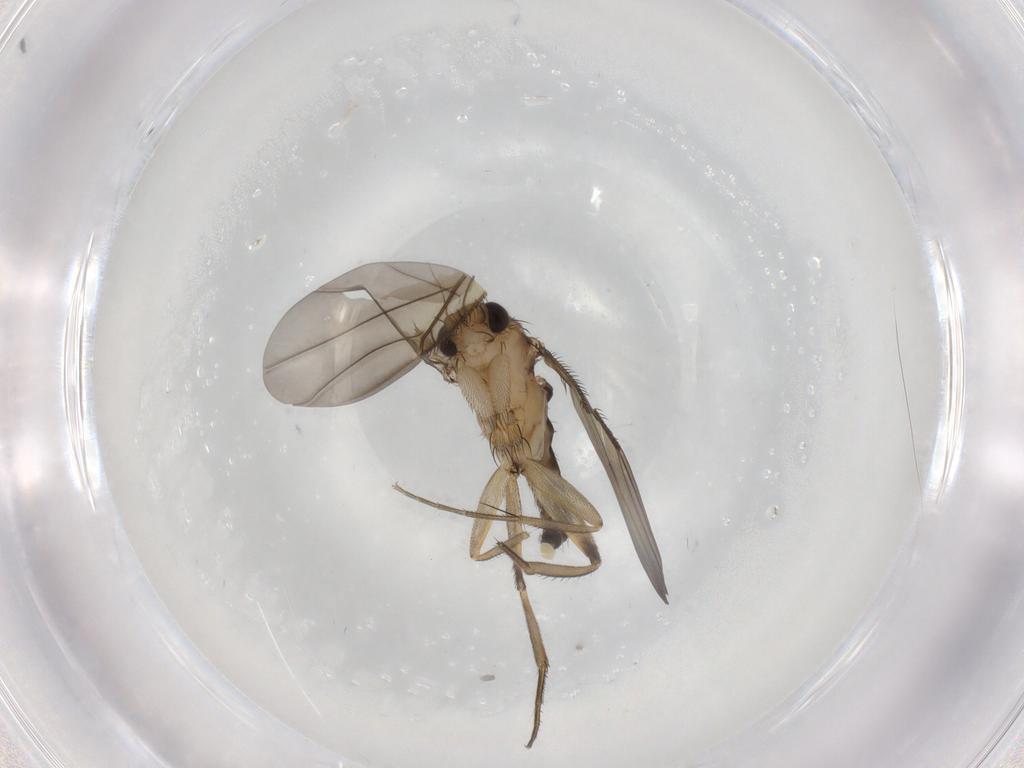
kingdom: Animalia
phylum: Arthropoda
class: Insecta
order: Diptera
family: Phoridae
